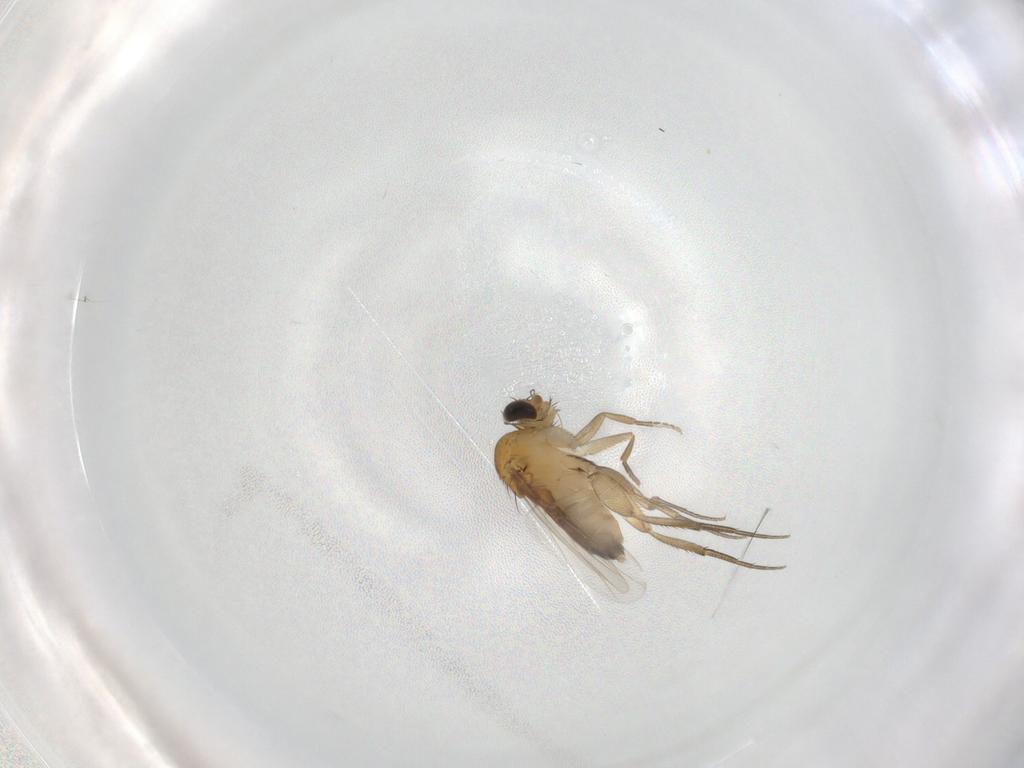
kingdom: Animalia
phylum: Arthropoda
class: Insecta
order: Diptera
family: Phoridae
